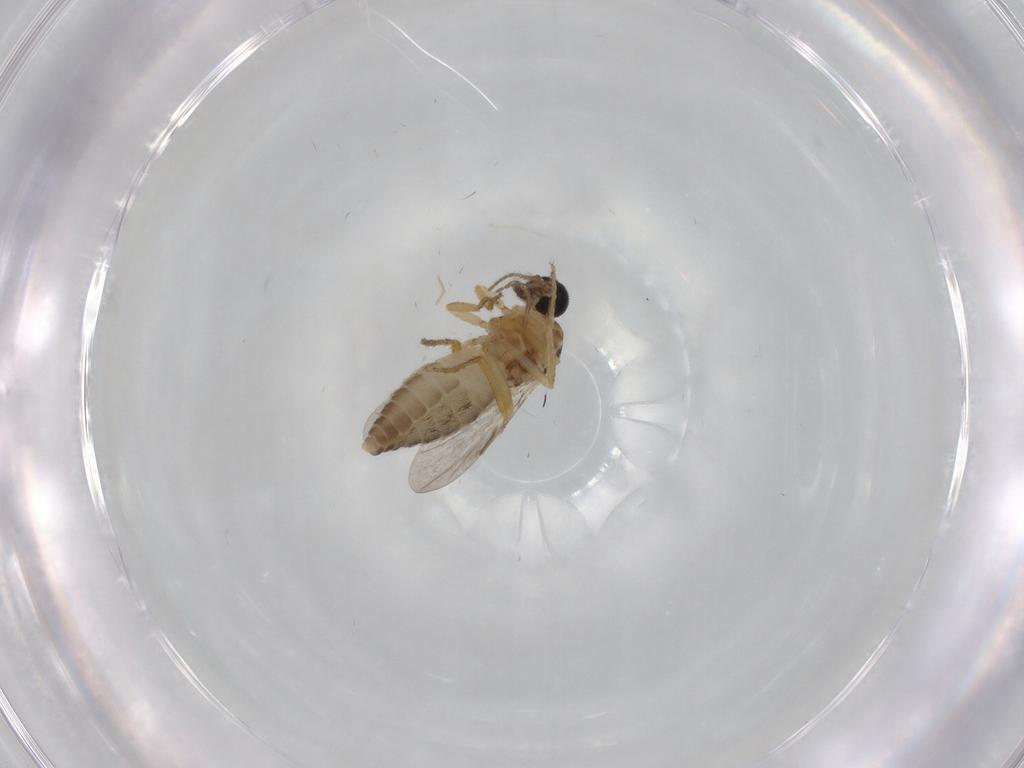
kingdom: Animalia
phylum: Arthropoda
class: Insecta
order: Diptera
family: Ceratopogonidae
